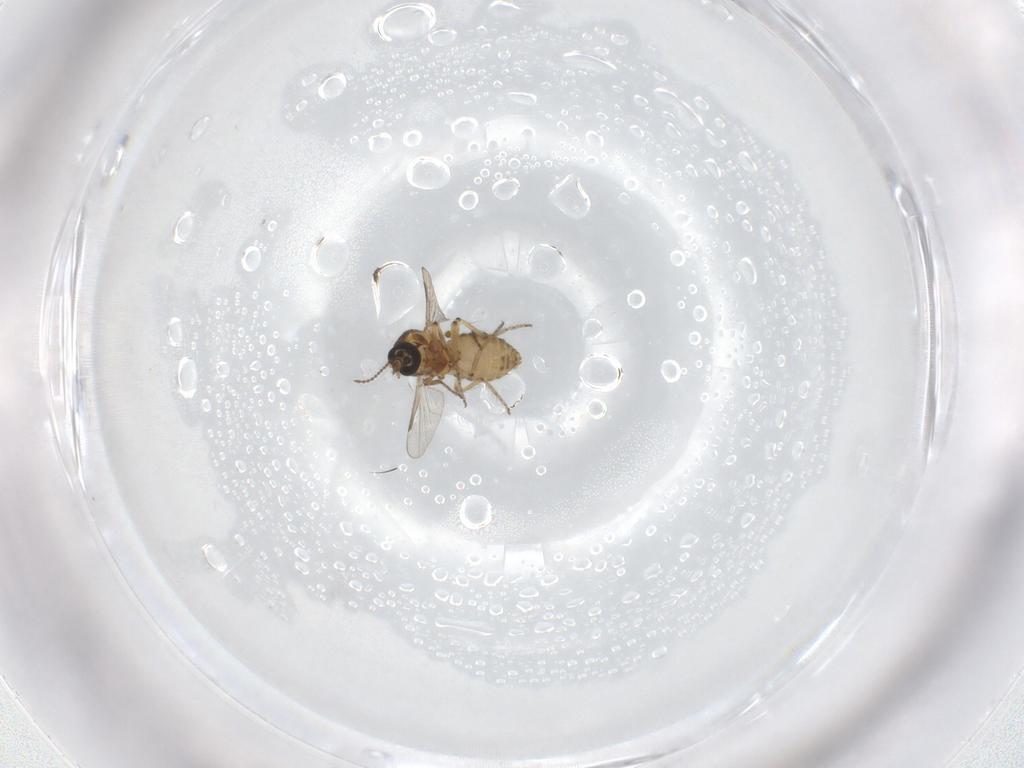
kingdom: Animalia
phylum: Arthropoda
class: Insecta
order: Diptera
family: Ceratopogonidae
